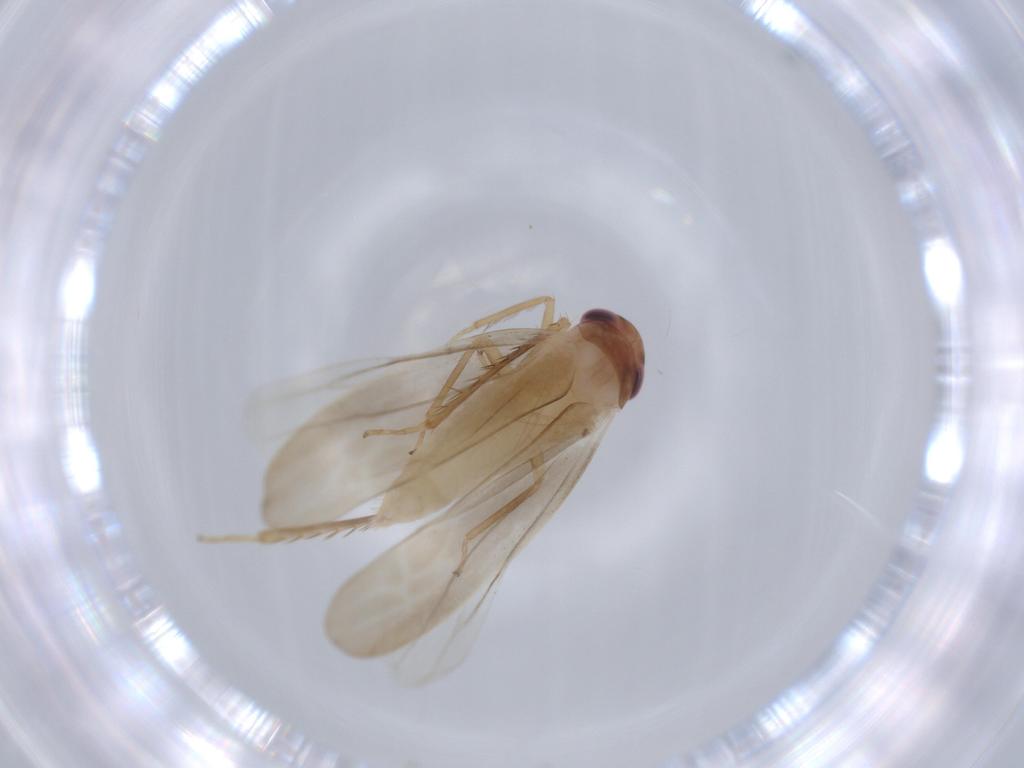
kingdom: Animalia
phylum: Arthropoda
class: Insecta
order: Hemiptera
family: Cicadellidae
